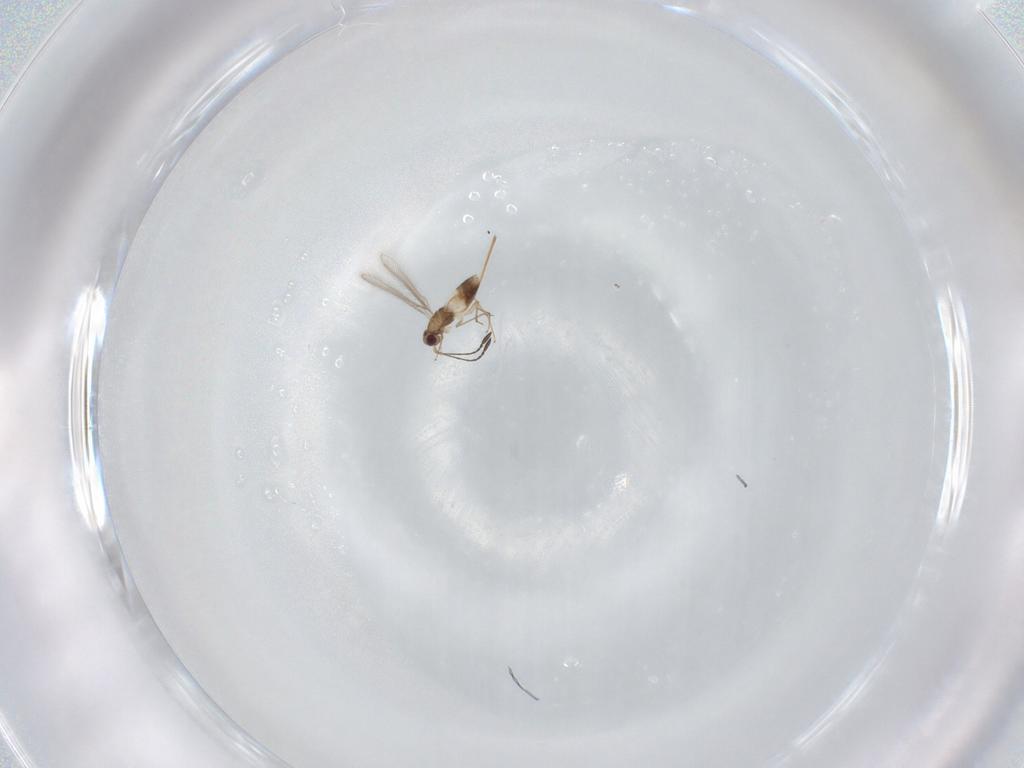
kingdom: Animalia
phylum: Arthropoda
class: Insecta
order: Hymenoptera
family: Mymaridae
